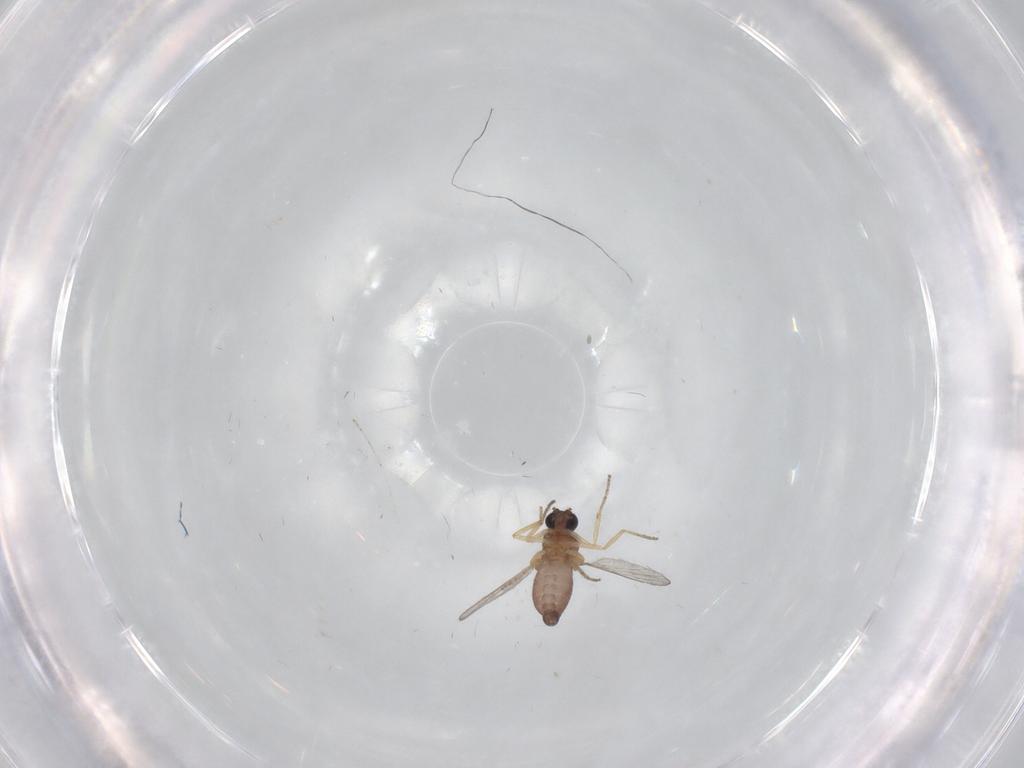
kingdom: Animalia
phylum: Arthropoda
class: Insecta
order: Diptera
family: Ceratopogonidae
